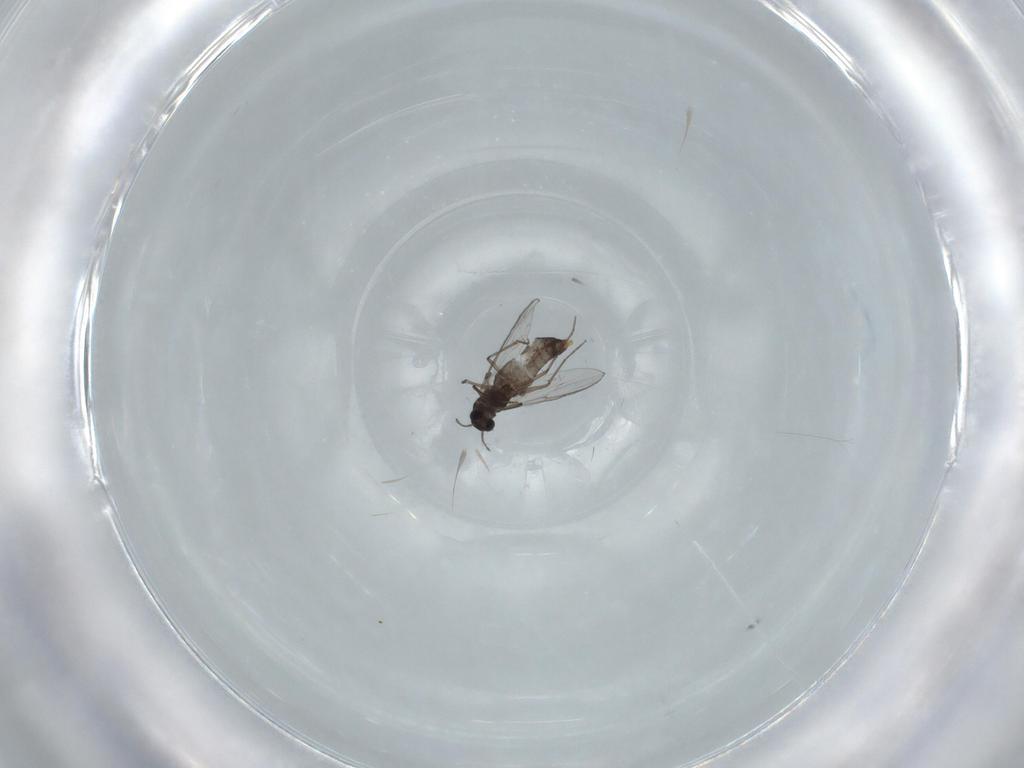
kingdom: Animalia
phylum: Arthropoda
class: Insecta
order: Diptera
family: Chironomidae
